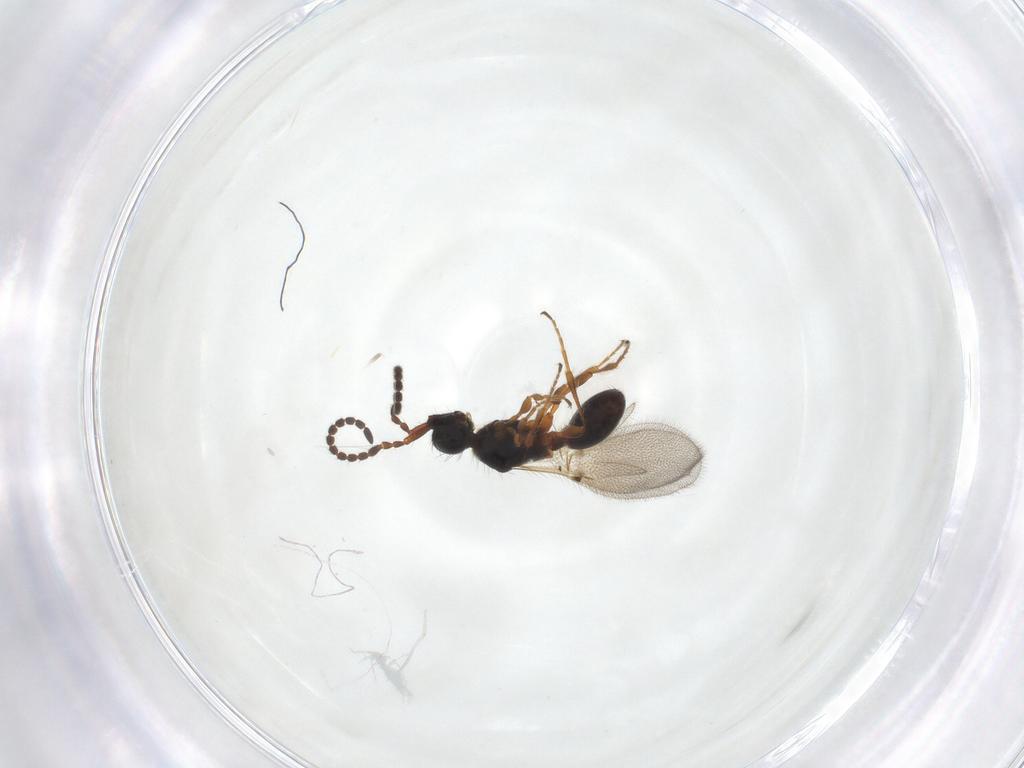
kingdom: Animalia
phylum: Arthropoda
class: Insecta
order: Hymenoptera
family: Diapriidae
